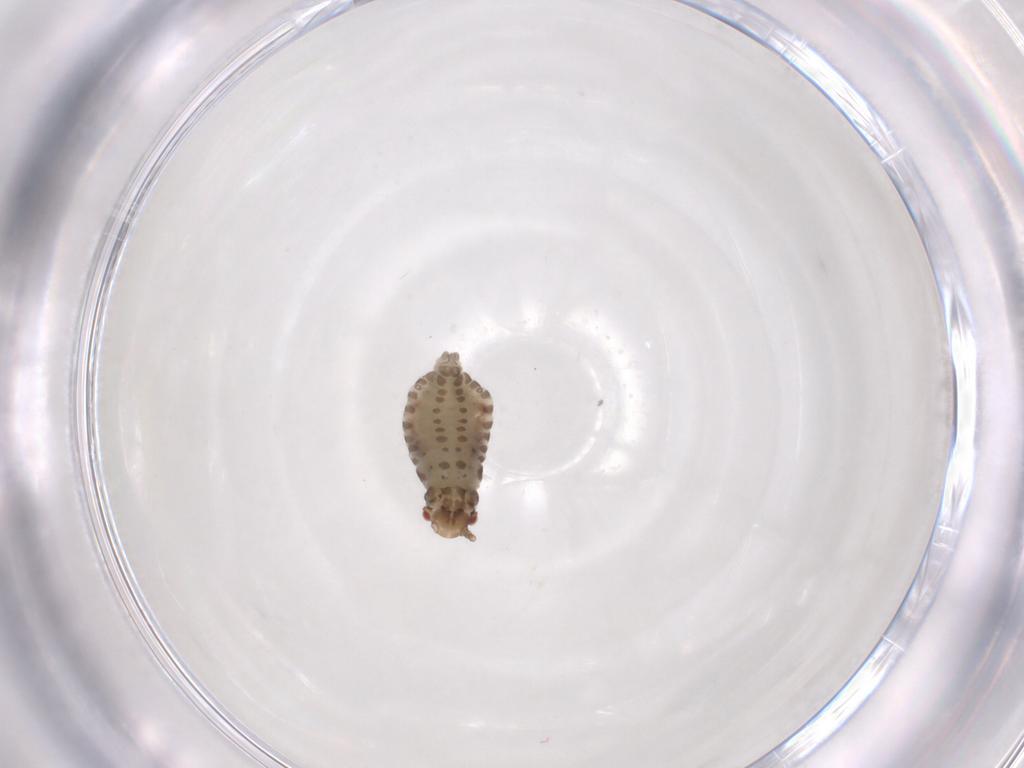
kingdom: Animalia
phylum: Arthropoda
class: Insecta
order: Hemiptera
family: Aphididae
